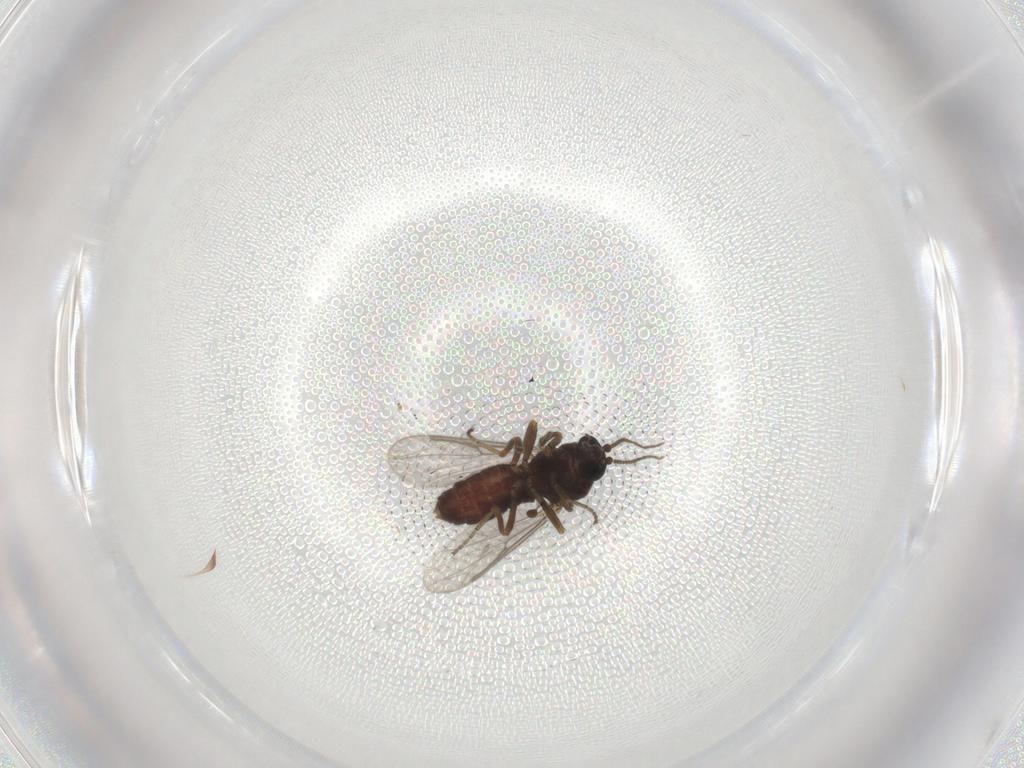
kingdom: Animalia
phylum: Arthropoda
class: Insecta
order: Diptera
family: Ceratopogonidae
